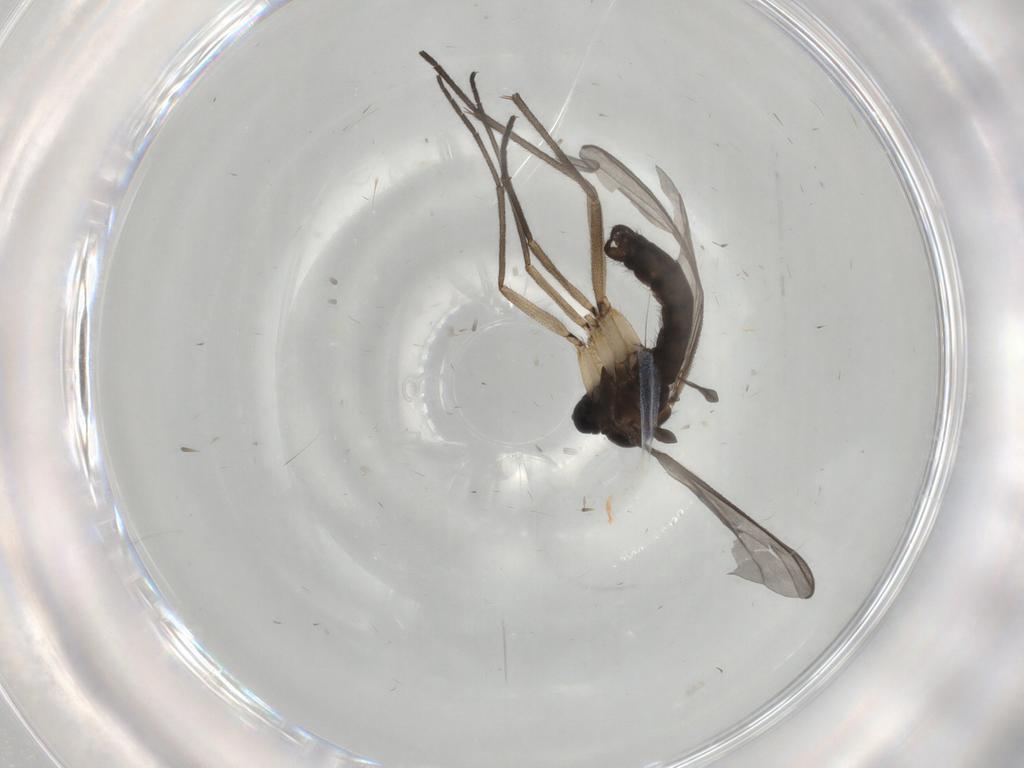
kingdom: Animalia
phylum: Arthropoda
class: Insecta
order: Diptera
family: Sciaridae
